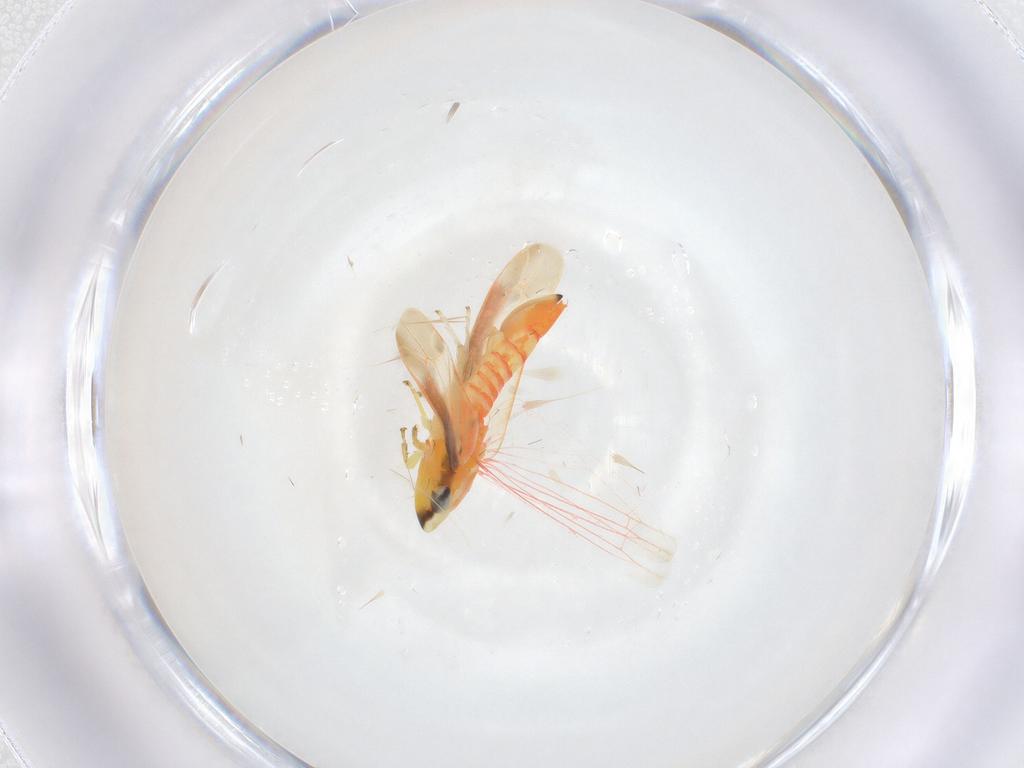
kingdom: Animalia
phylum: Arthropoda
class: Insecta
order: Hemiptera
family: Cicadellidae
